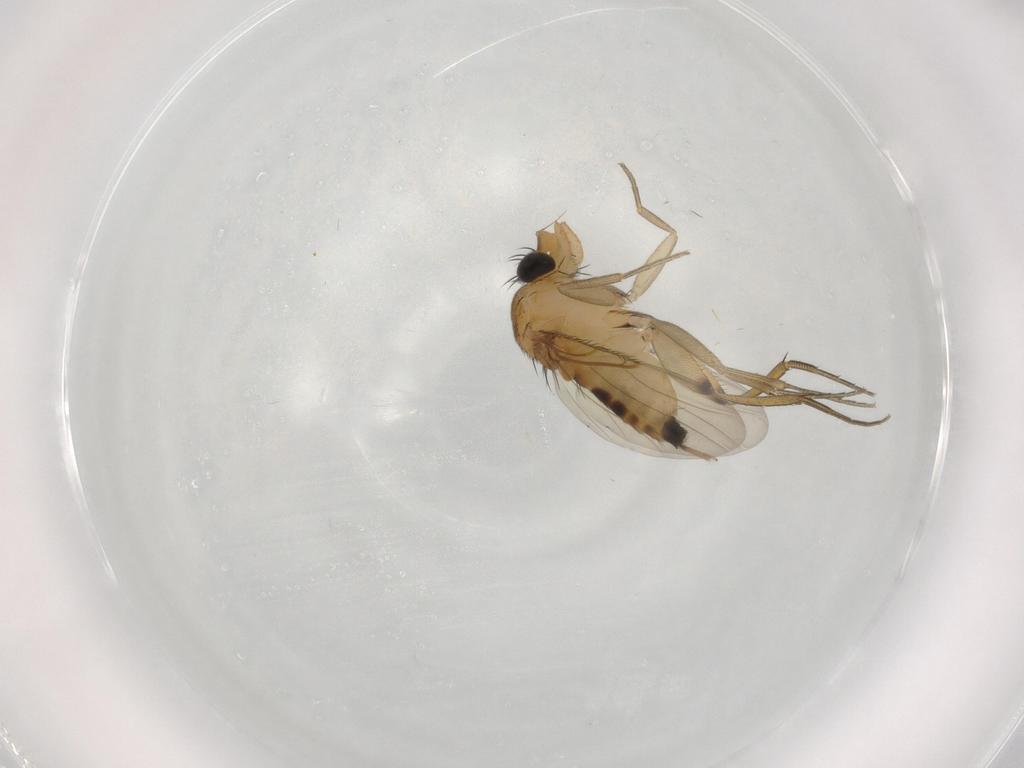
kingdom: Animalia
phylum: Arthropoda
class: Insecta
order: Diptera
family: Phoridae
